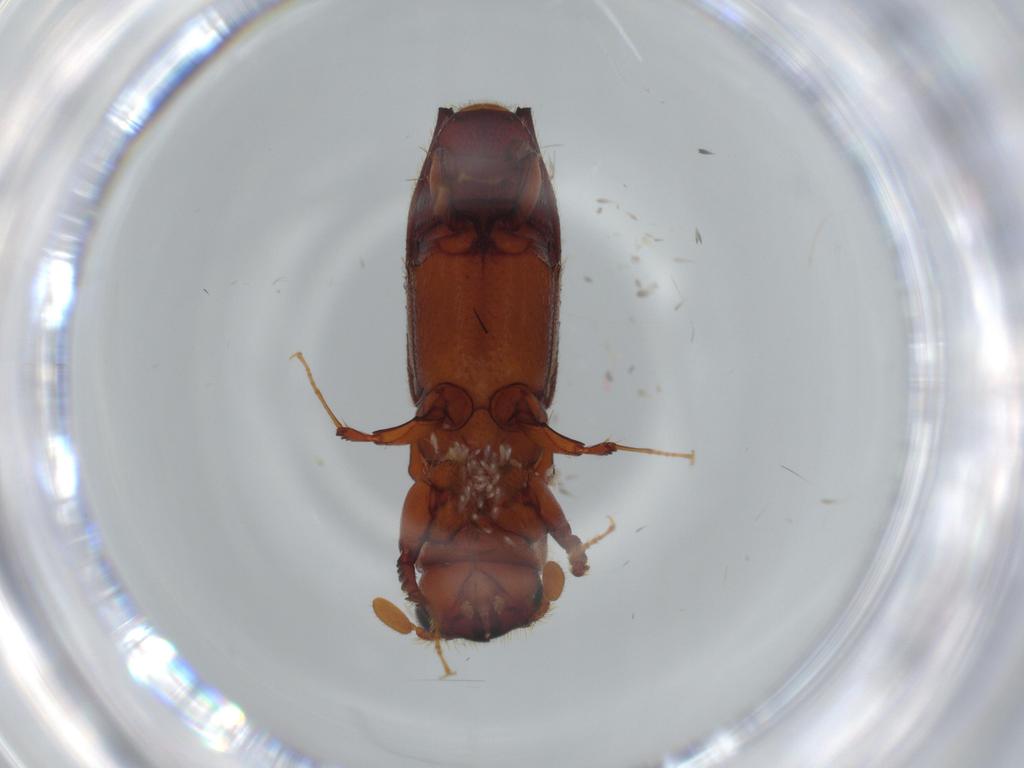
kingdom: Animalia
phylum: Arthropoda
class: Insecta
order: Coleoptera
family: Curculionidae
